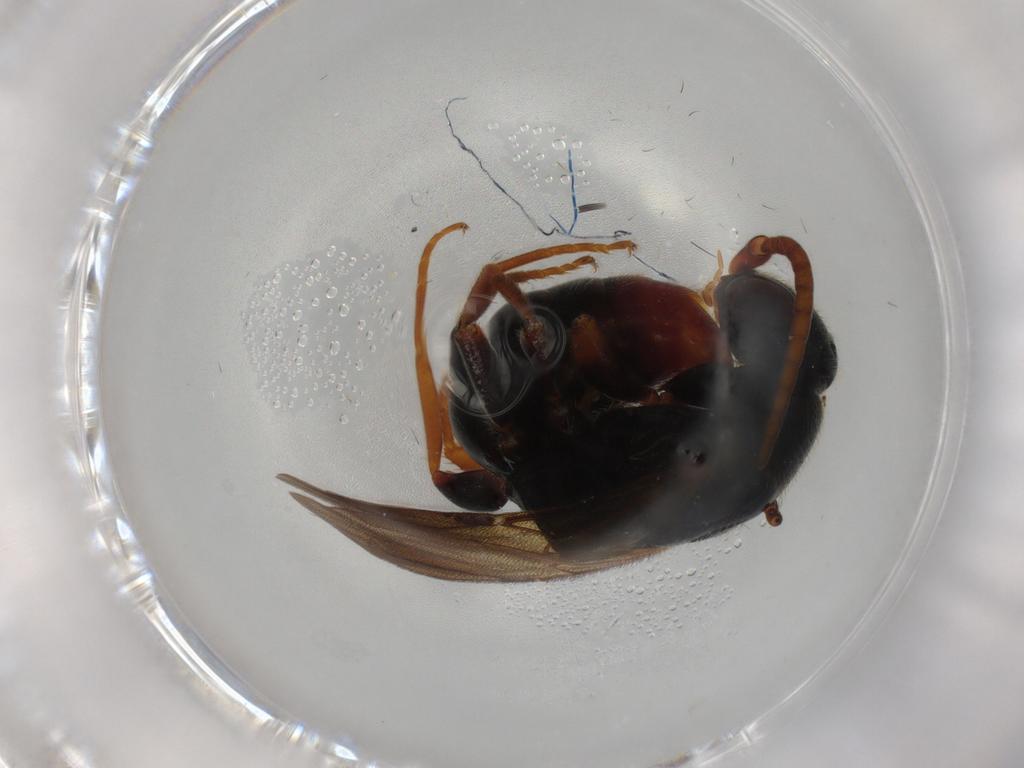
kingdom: Animalia
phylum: Arthropoda
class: Insecta
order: Hymenoptera
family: Bethylidae
